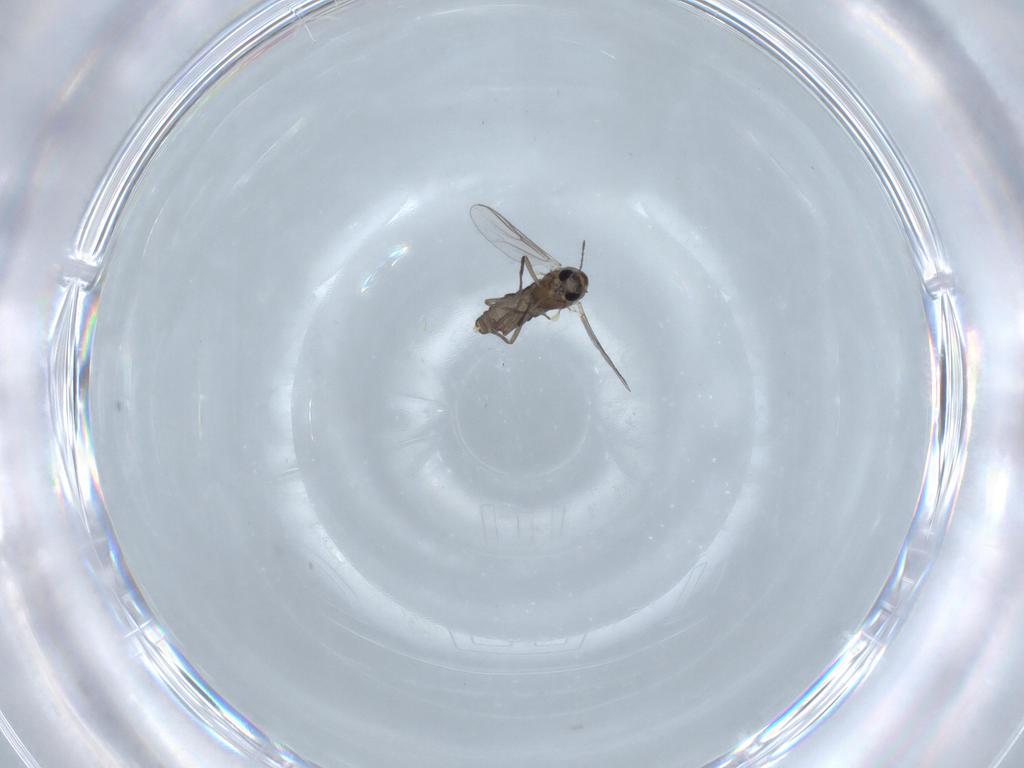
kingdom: Animalia
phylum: Arthropoda
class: Insecta
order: Diptera
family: Chironomidae
